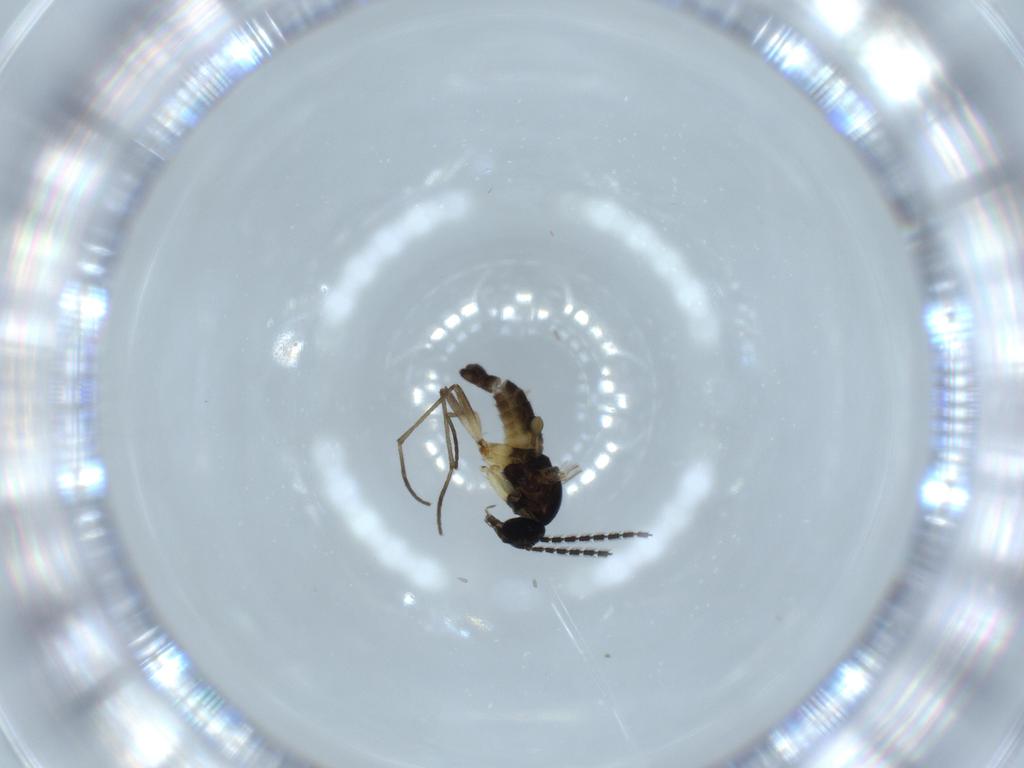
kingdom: Animalia
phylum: Arthropoda
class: Insecta
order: Diptera
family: Sciaridae
